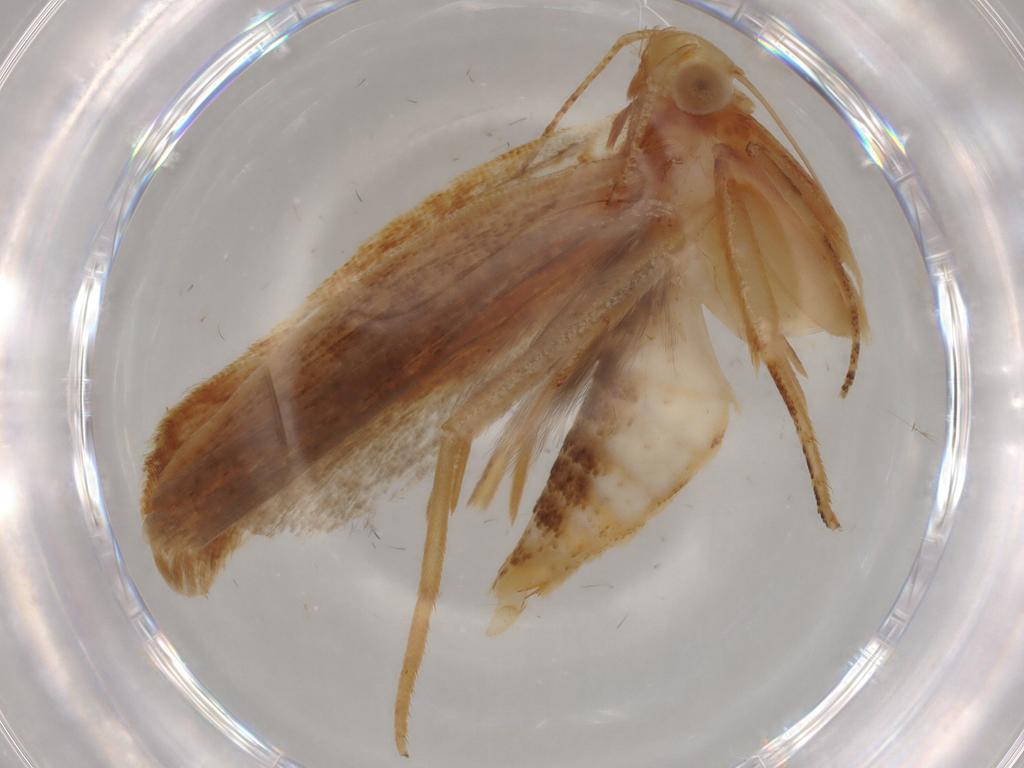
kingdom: Animalia
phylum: Arthropoda
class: Insecta
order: Lepidoptera
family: Gelechiidae
